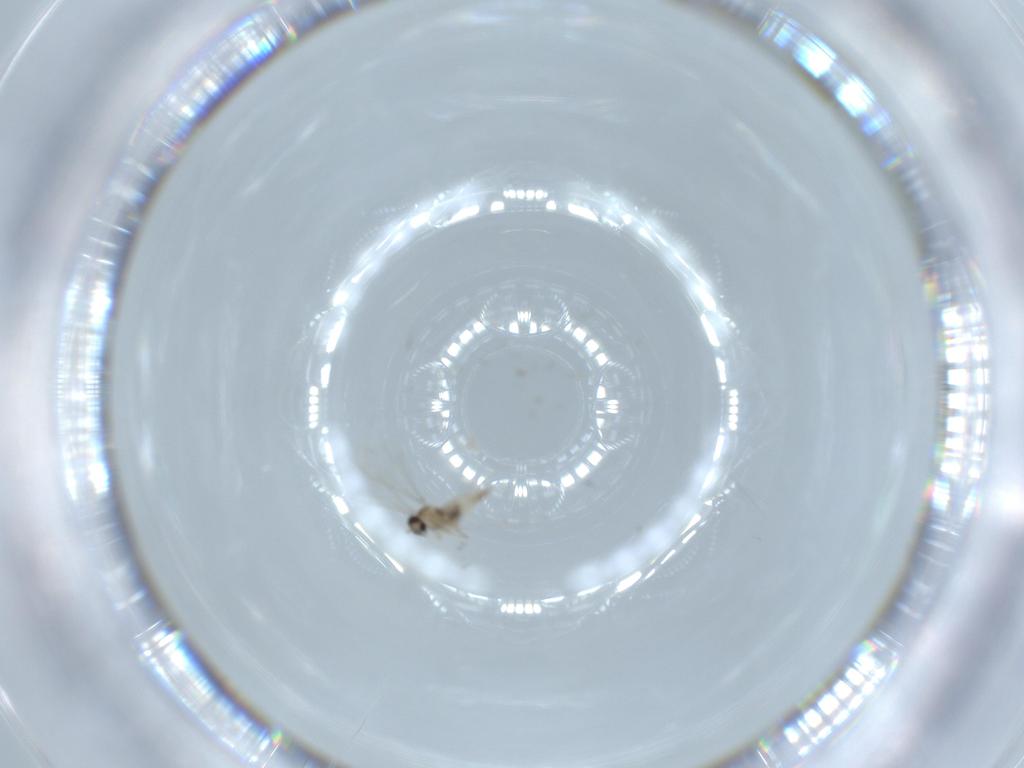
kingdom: Animalia
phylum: Arthropoda
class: Insecta
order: Diptera
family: Cecidomyiidae
